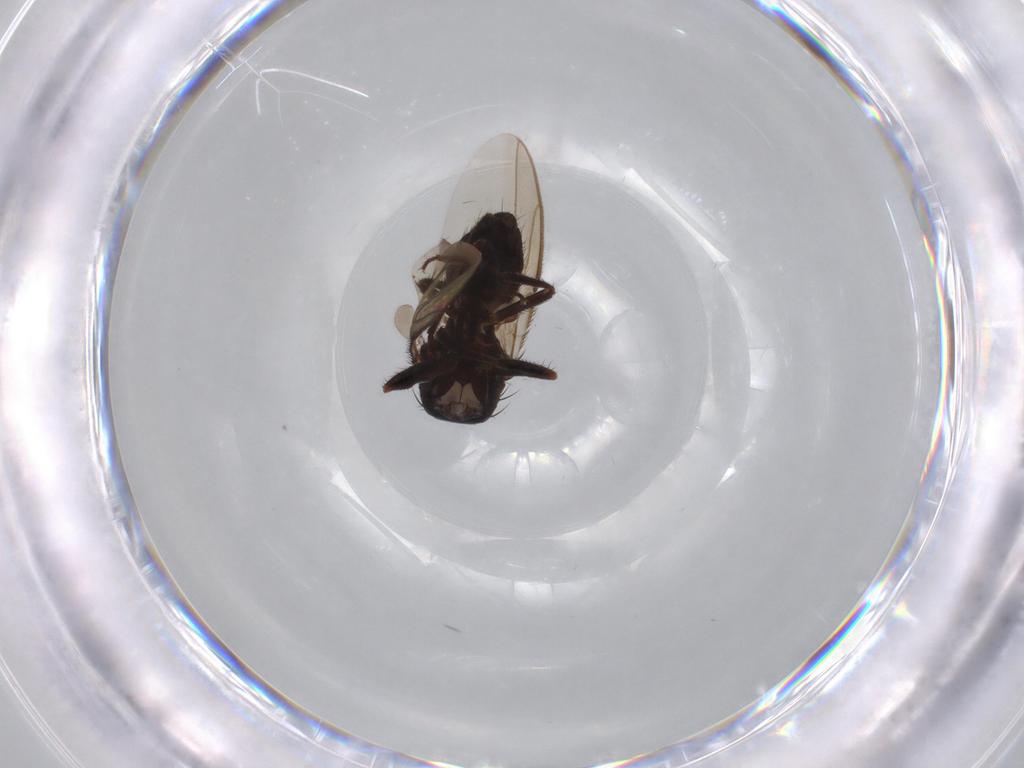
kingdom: Animalia
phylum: Arthropoda
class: Insecta
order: Diptera
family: Sphaeroceridae
